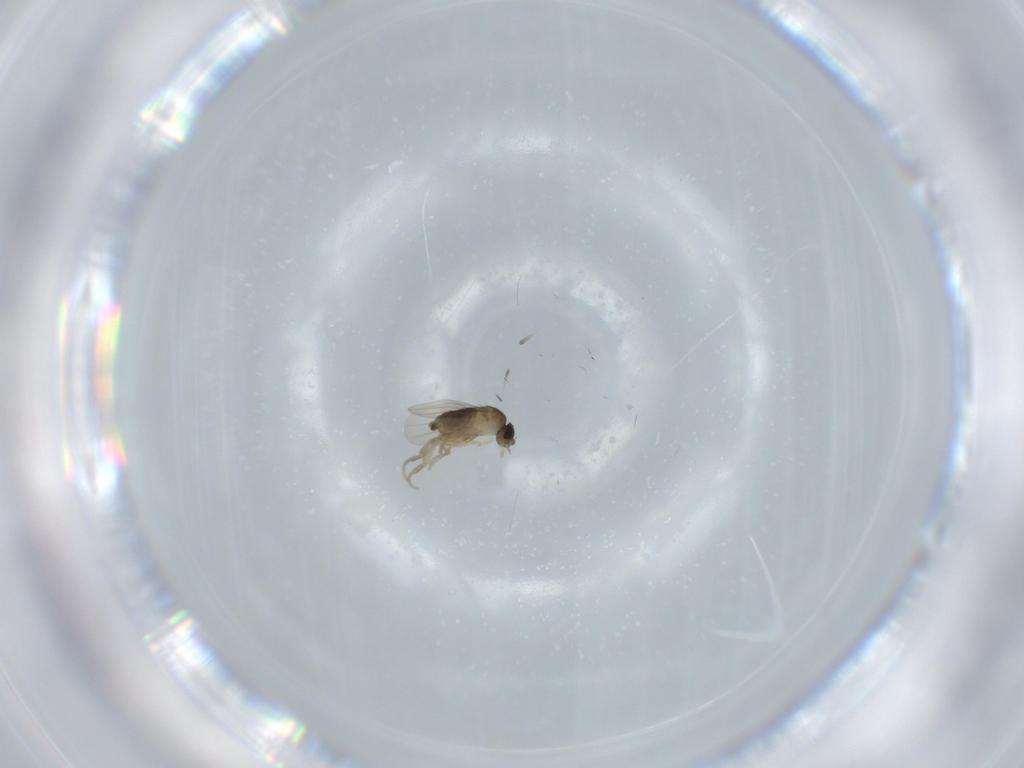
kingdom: Animalia
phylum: Arthropoda
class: Insecta
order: Diptera
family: Phoridae
